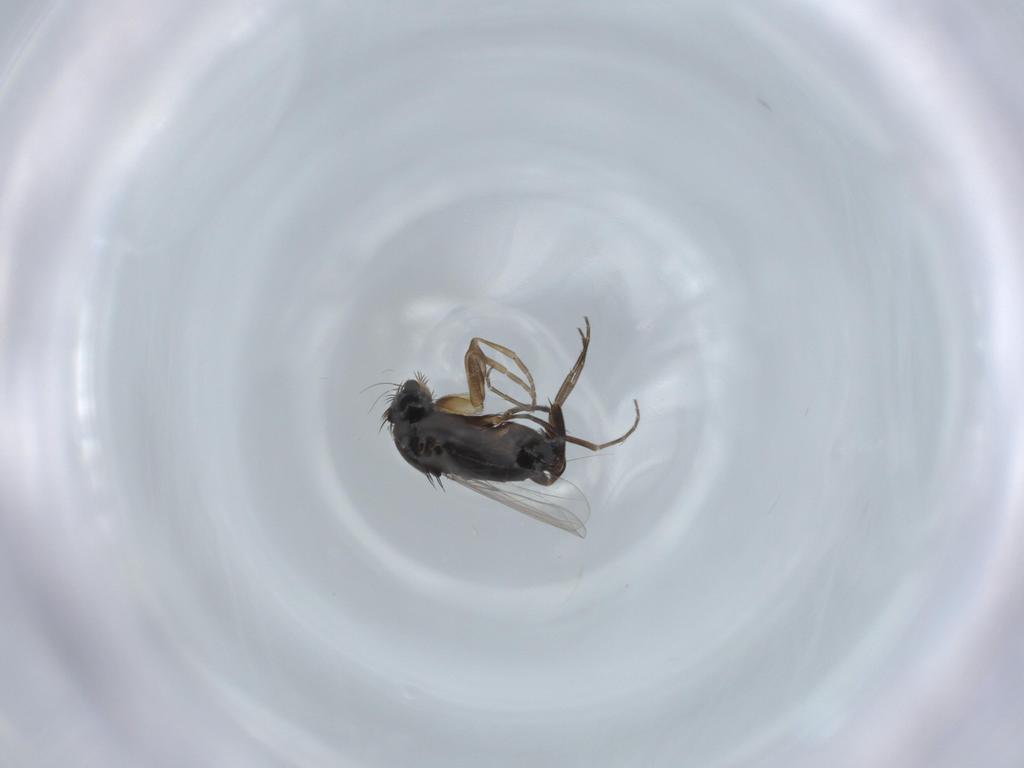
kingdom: Animalia
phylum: Arthropoda
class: Insecta
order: Diptera
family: Phoridae
